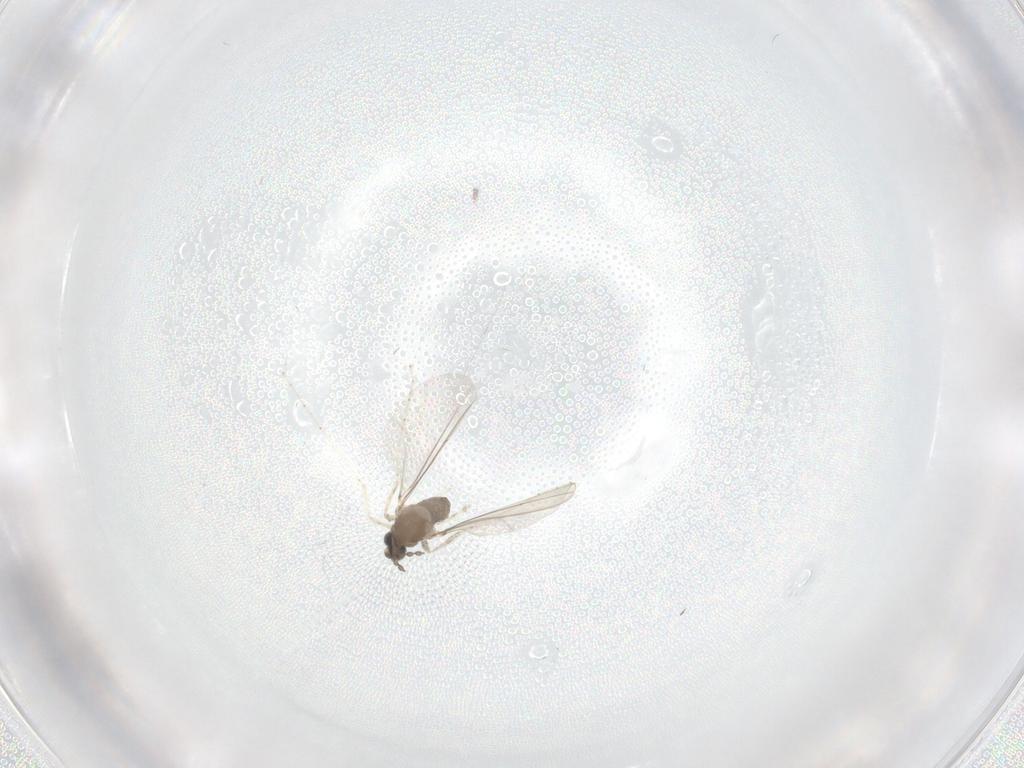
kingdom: Animalia
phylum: Arthropoda
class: Insecta
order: Diptera
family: Cecidomyiidae
